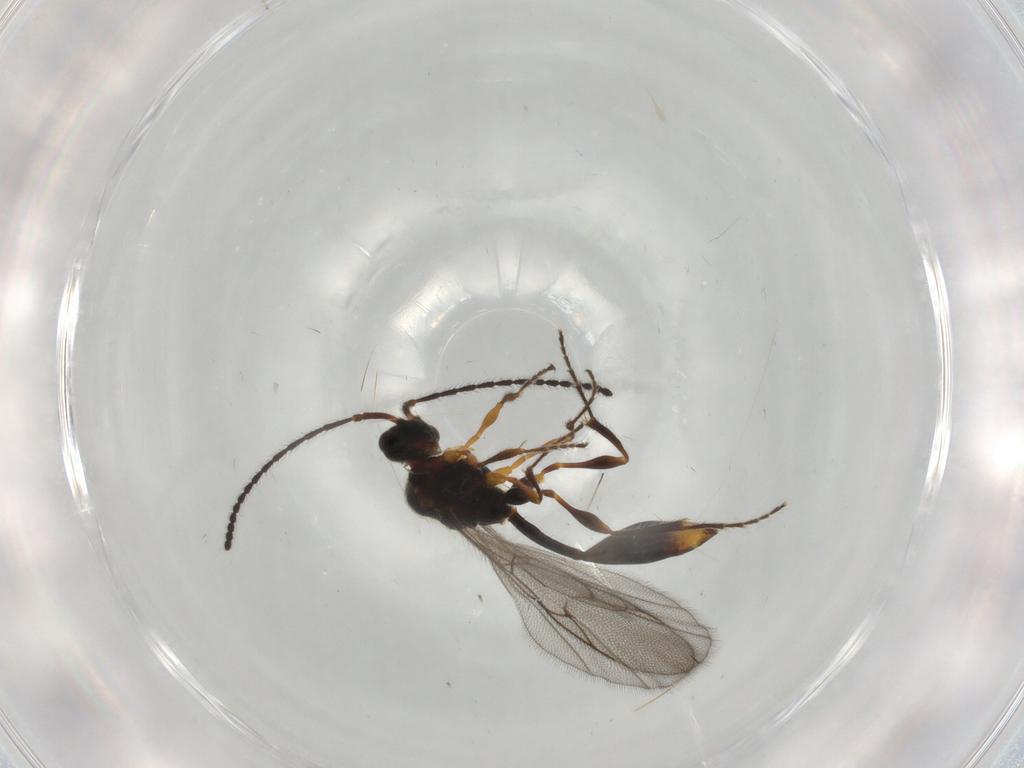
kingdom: Animalia
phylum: Arthropoda
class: Insecta
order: Hymenoptera
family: Diapriidae
